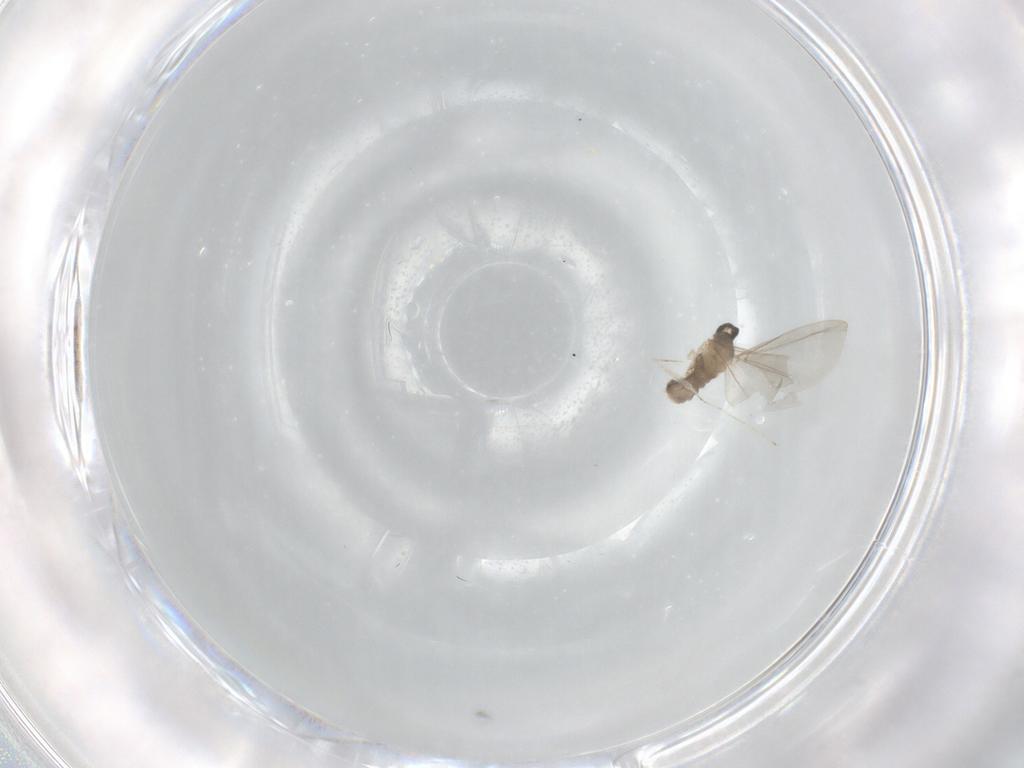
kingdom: Animalia
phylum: Arthropoda
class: Insecta
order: Diptera
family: Cecidomyiidae
